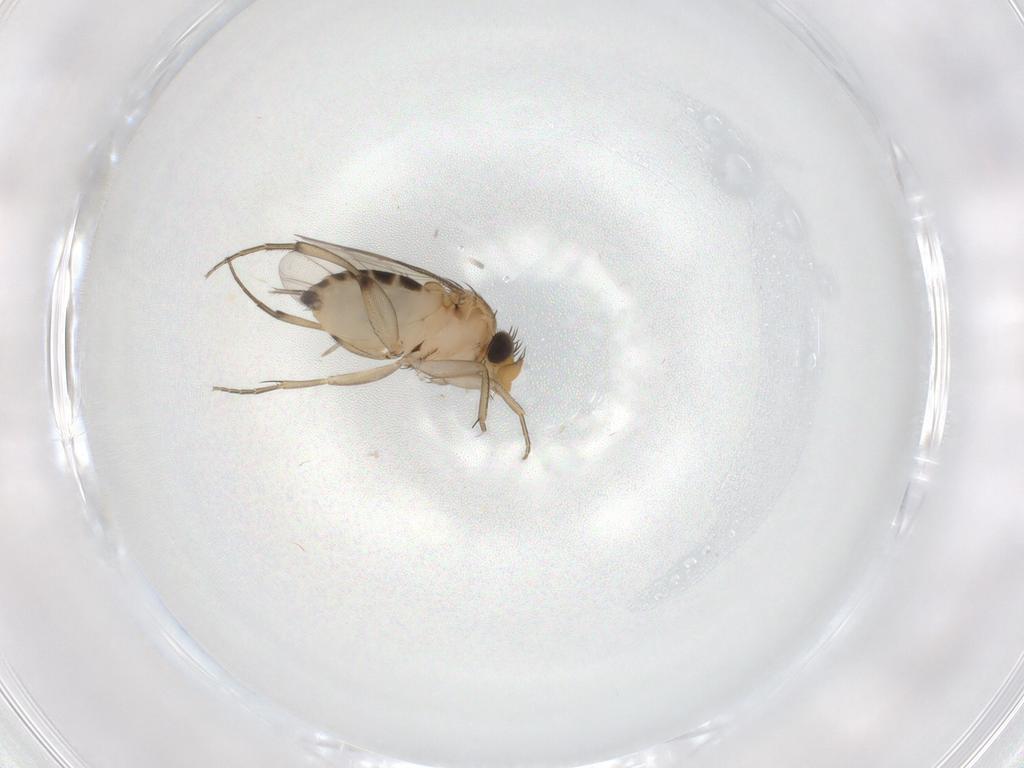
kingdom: Animalia
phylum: Arthropoda
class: Insecta
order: Diptera
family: Phoridae
